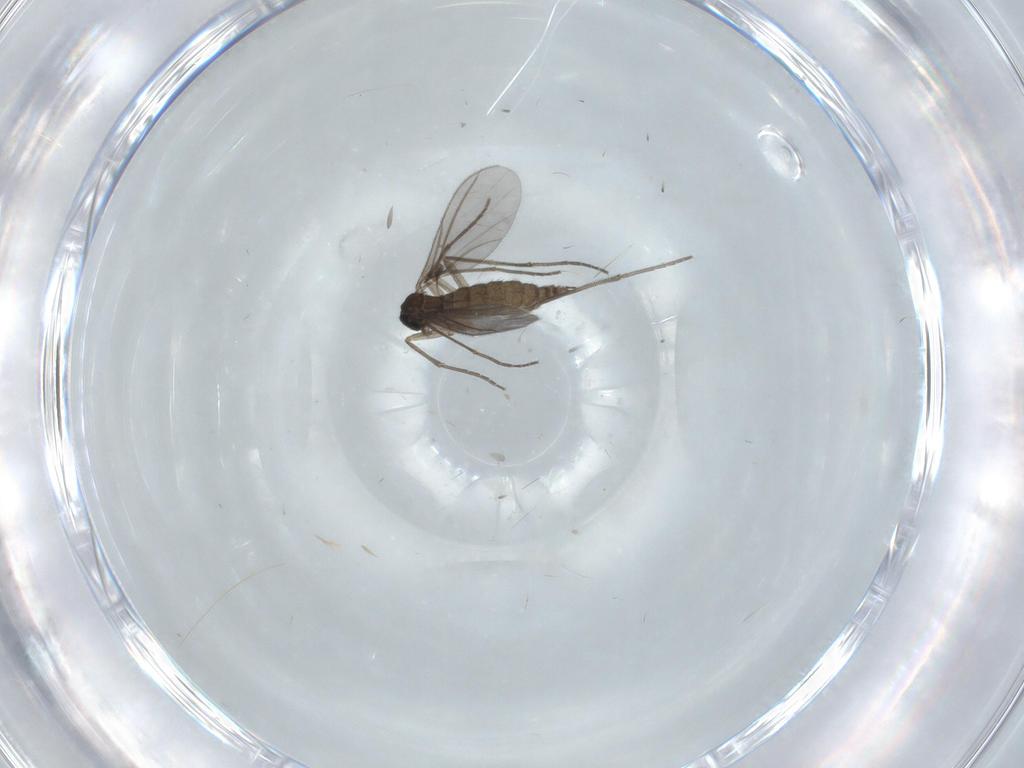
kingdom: Animalia
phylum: Arthropoda
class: Insecta
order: Diptera
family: Sciaridae
